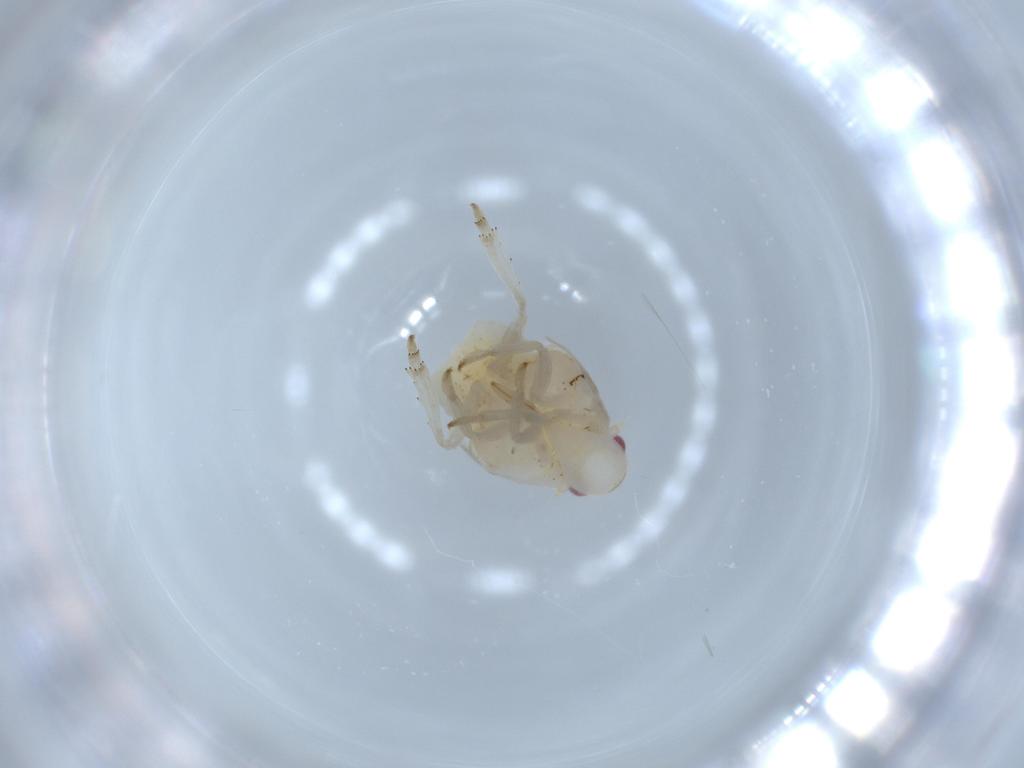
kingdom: Animalia
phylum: Arthropoda
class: Insecta
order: Hemiptera
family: Flatidae
